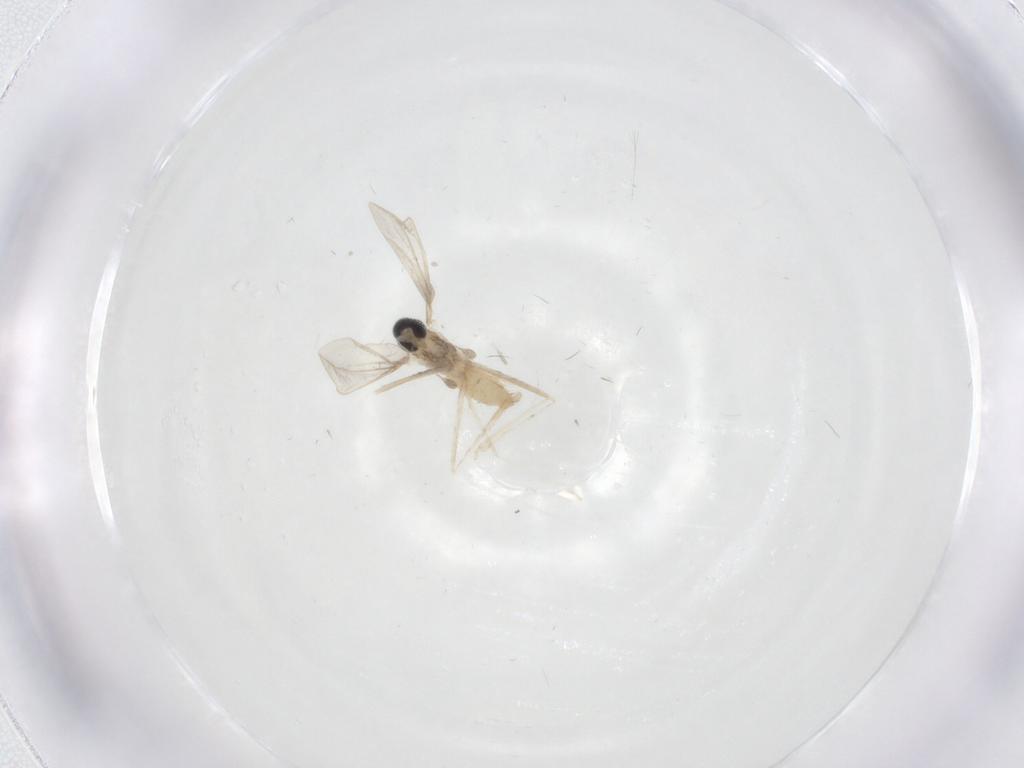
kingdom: Animalia
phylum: Arthropoda
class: Insecta
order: Diptera
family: Cecidomyiidae
